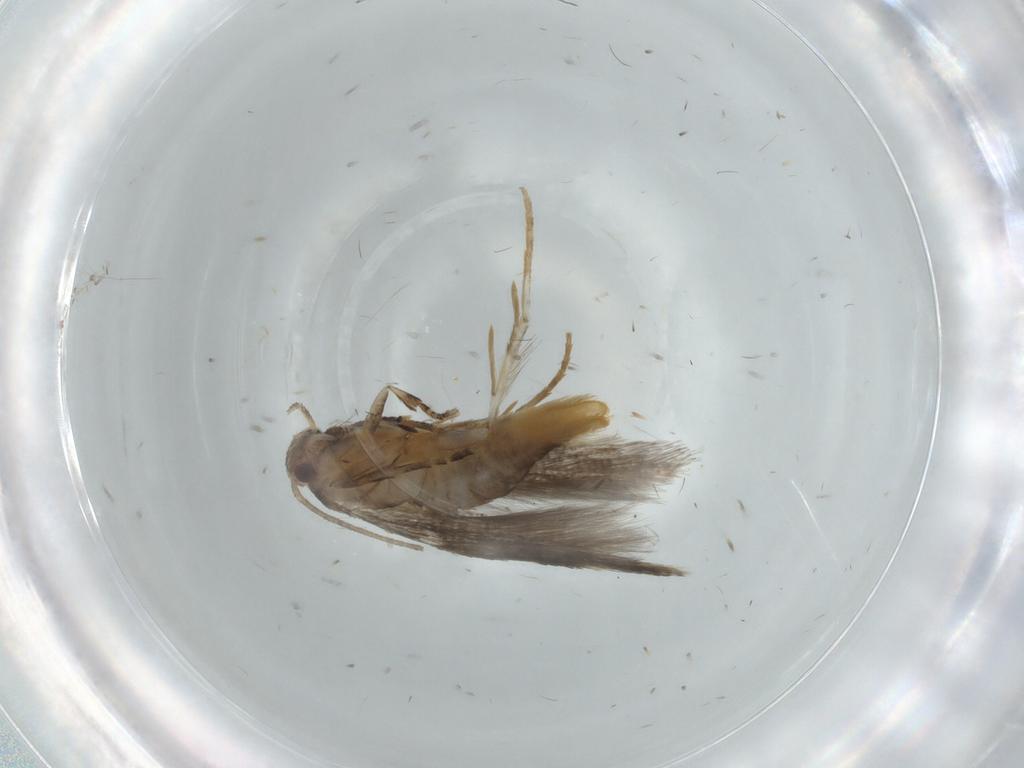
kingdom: Animalia
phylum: Arthropoda
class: Insecta
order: Lepidoptera
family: Elachistidae
